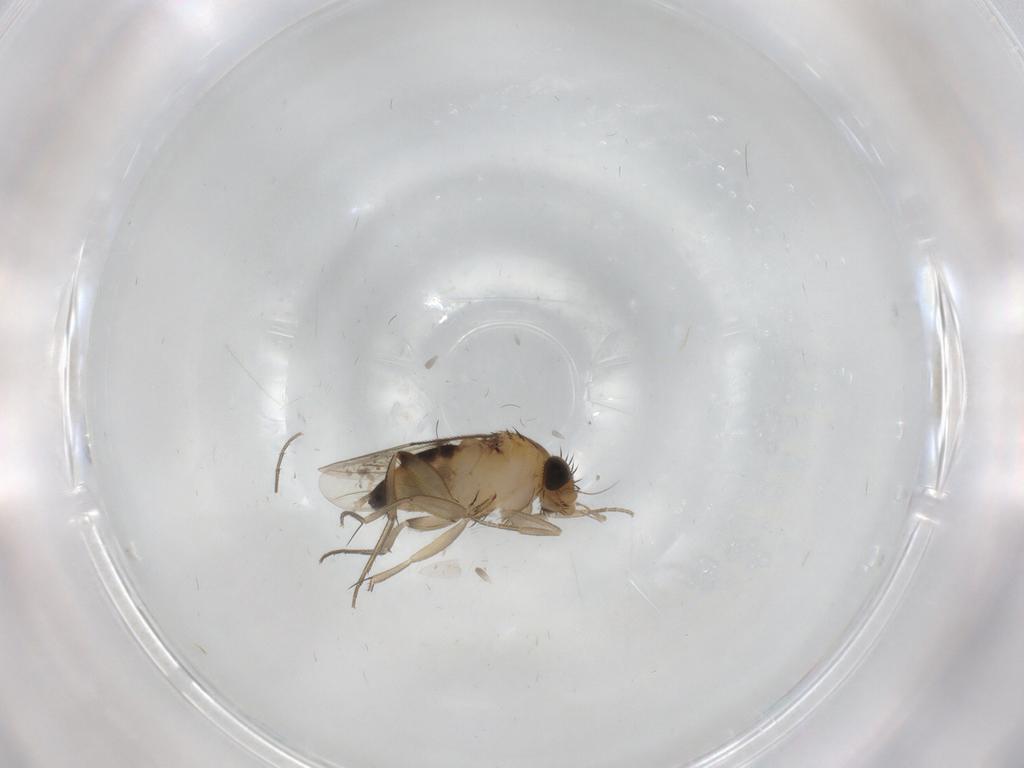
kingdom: Animalia
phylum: Arthropoda
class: Insecta
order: Diptera
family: Phoridae
